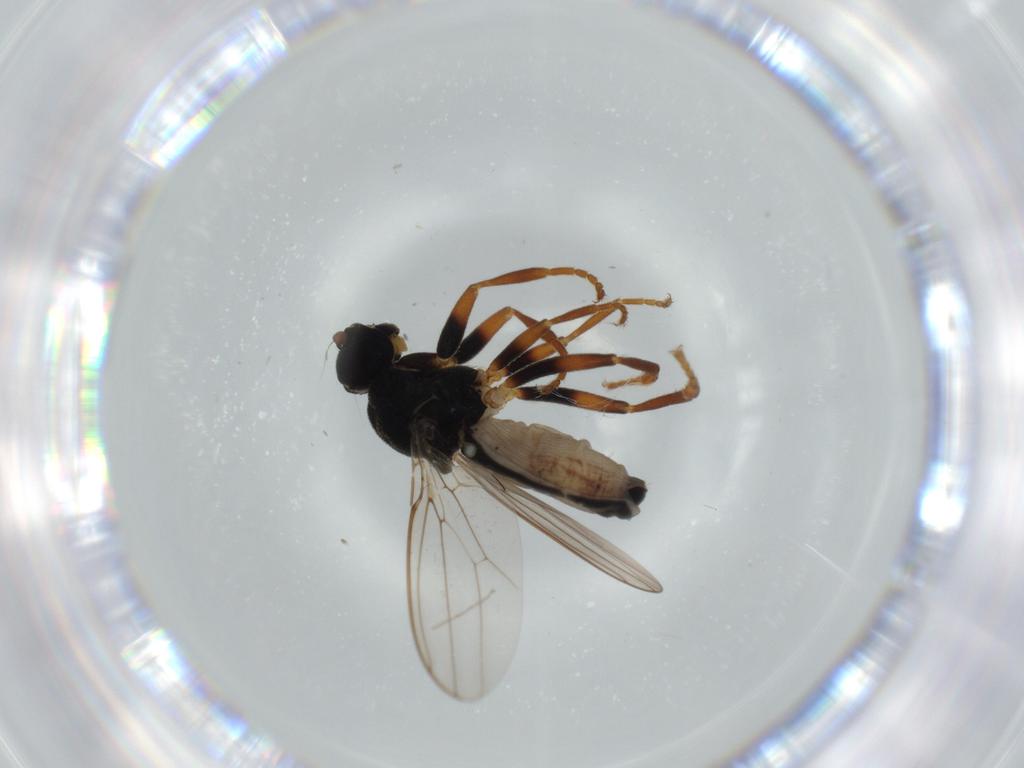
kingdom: Animalia
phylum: Arthropoda
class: Insecta
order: Diptera
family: Sphaeroceridae
